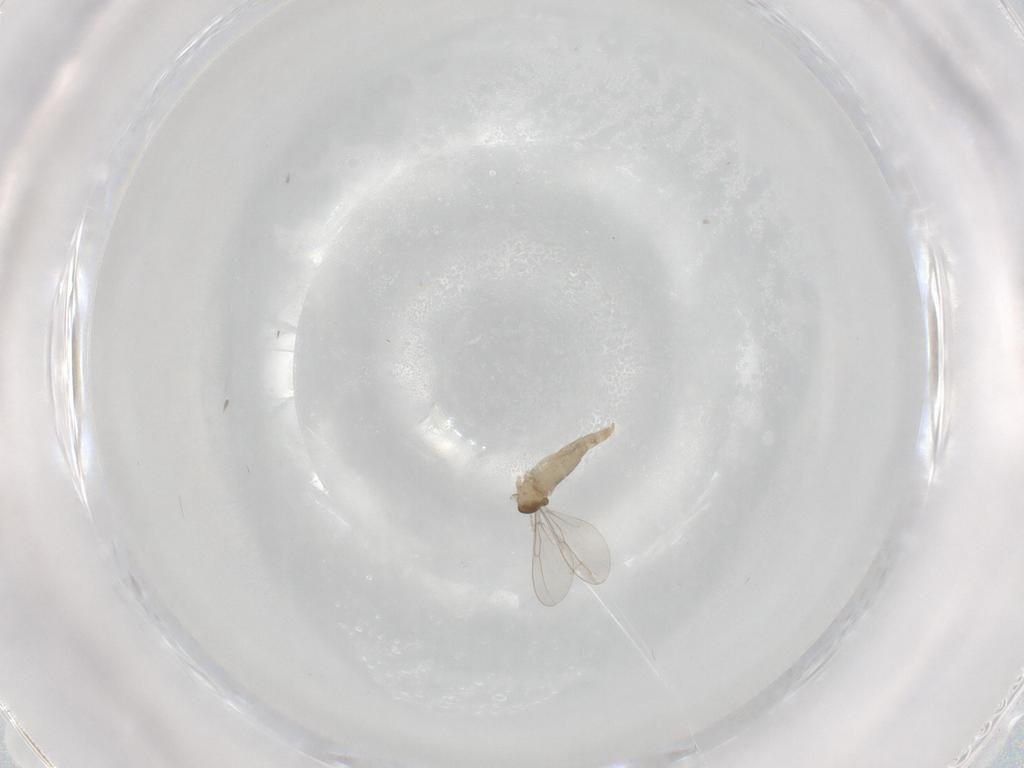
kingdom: Animalia
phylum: Arthropoda
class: Insecta
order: Diptera
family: Cecidomyiidae
